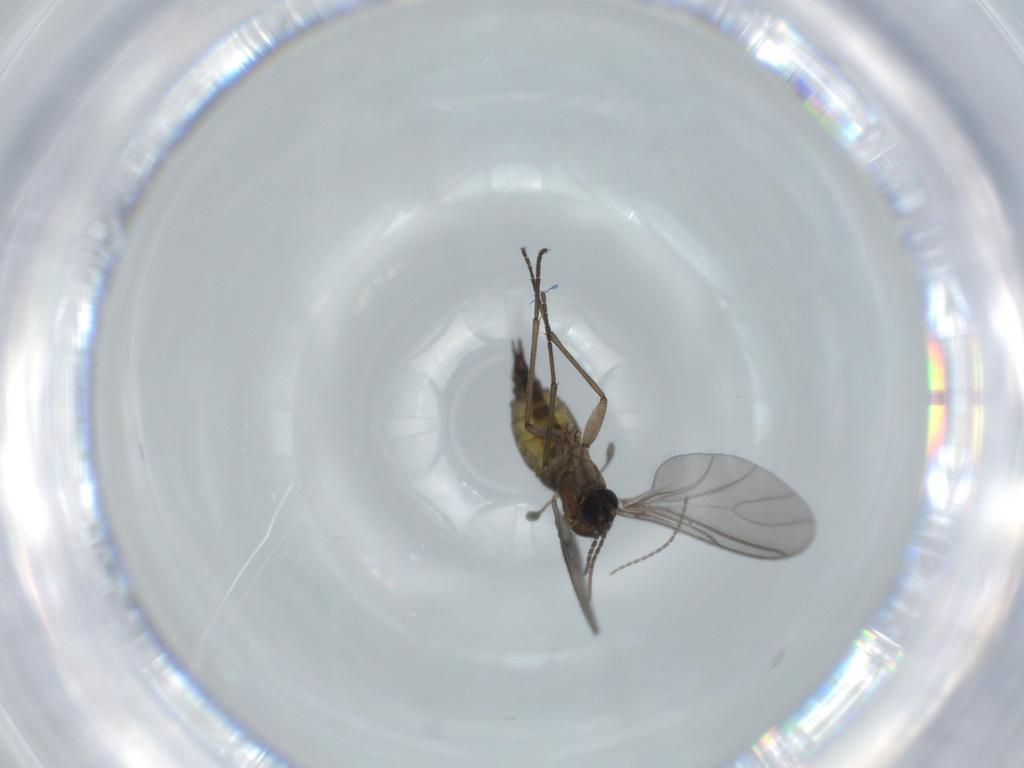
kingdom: Animalia
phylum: Arthropoda
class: Insecta
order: Diptera
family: Sciaridae
